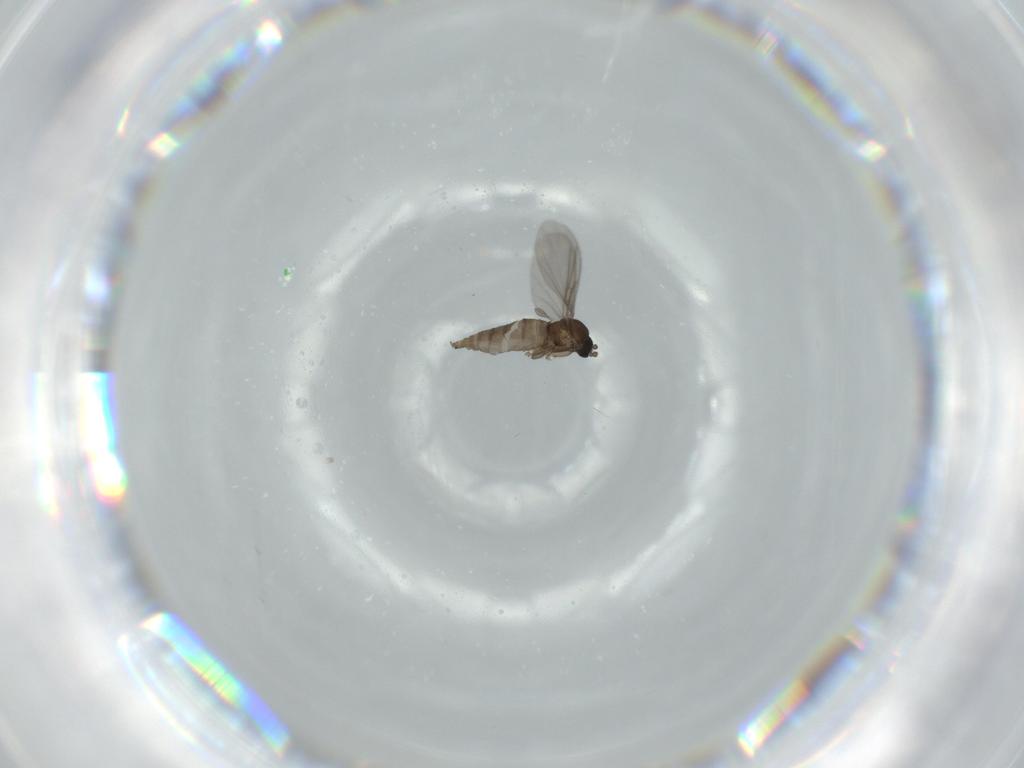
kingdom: Animalia
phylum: Arthropoda
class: Insecta
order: Diptera
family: Sciaridae
